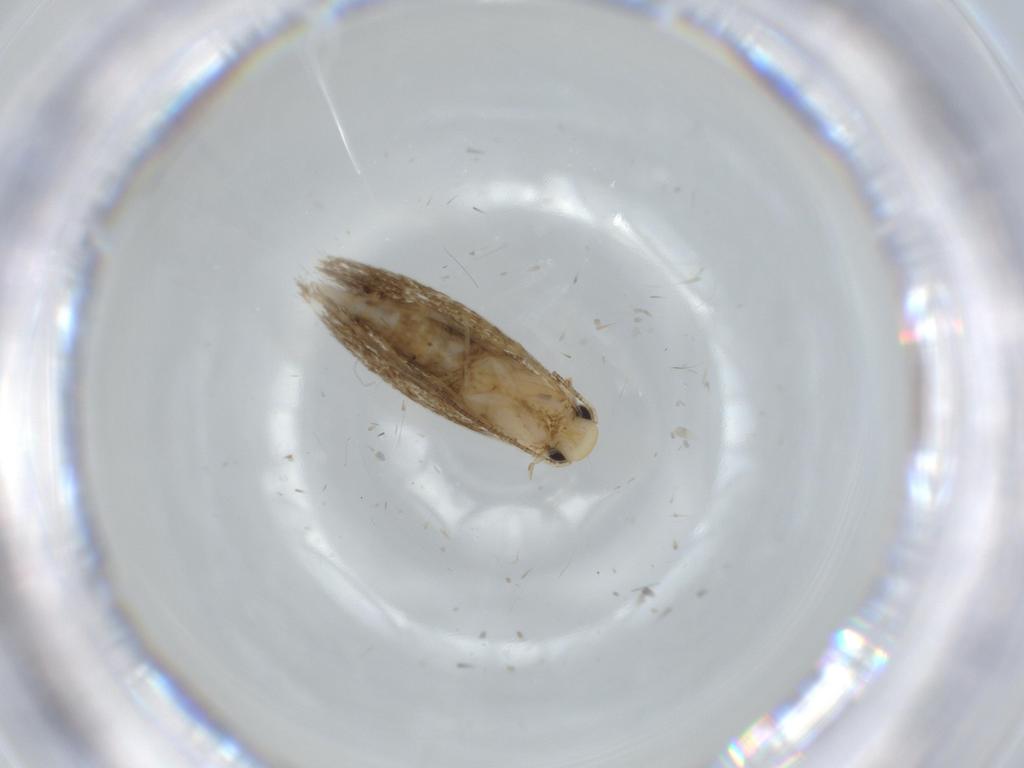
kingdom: Animalia
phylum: Arthropoda
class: Insecta
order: Lepidoptera
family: Tineidae
